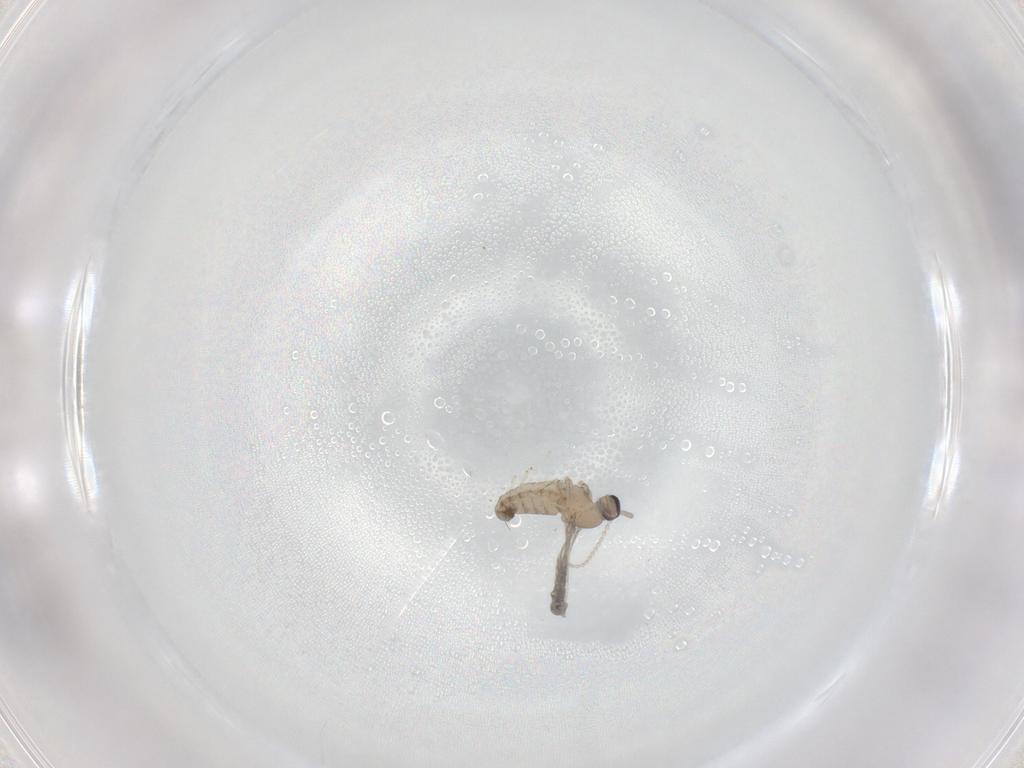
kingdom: Animalia
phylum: Arthropoda
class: Insecta
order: Diptera
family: Cecidomyiidae
